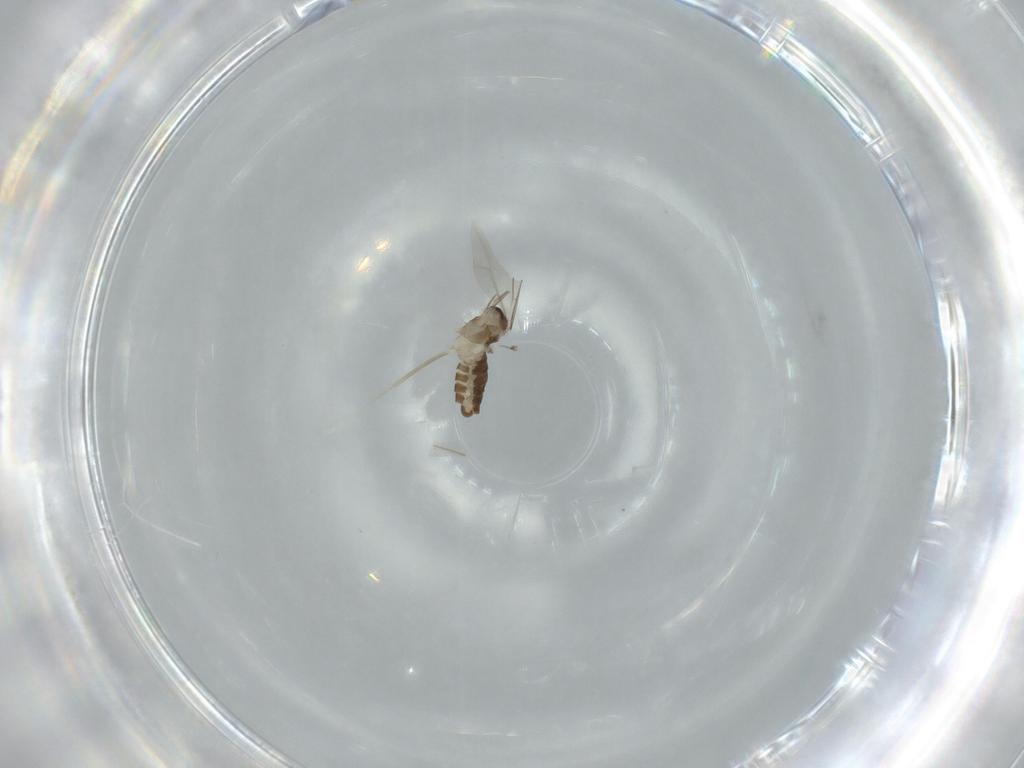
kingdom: Animalia
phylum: Arthropoda
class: Insecta
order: Diptera
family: Cecidomyiidae
